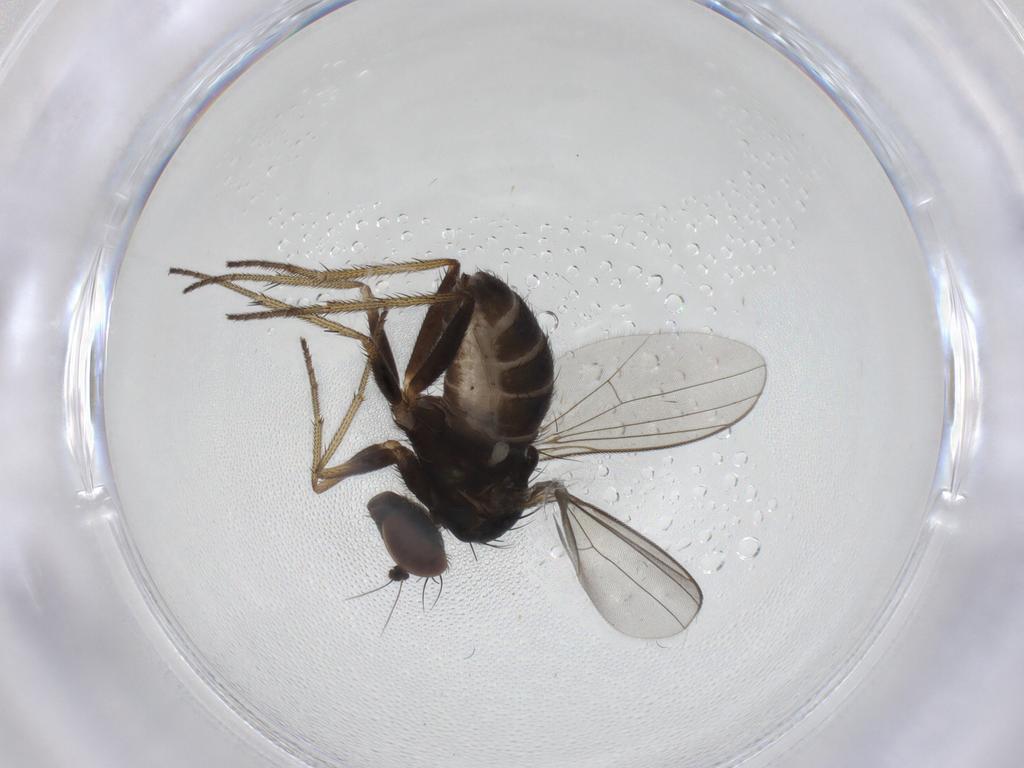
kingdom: Animalia
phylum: Arthropoda
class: Insecta
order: Diptera
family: Dolichopodidae
